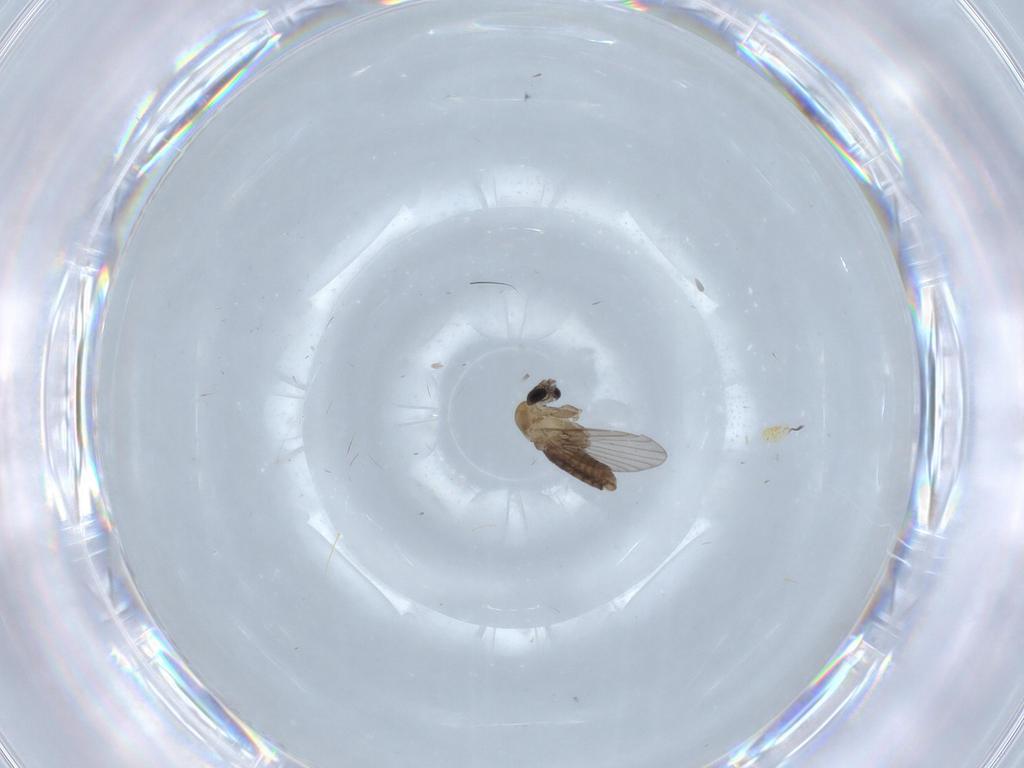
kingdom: Animalia
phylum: Arthropoda
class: Insecta
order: Diptera
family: Dolichopodidae
